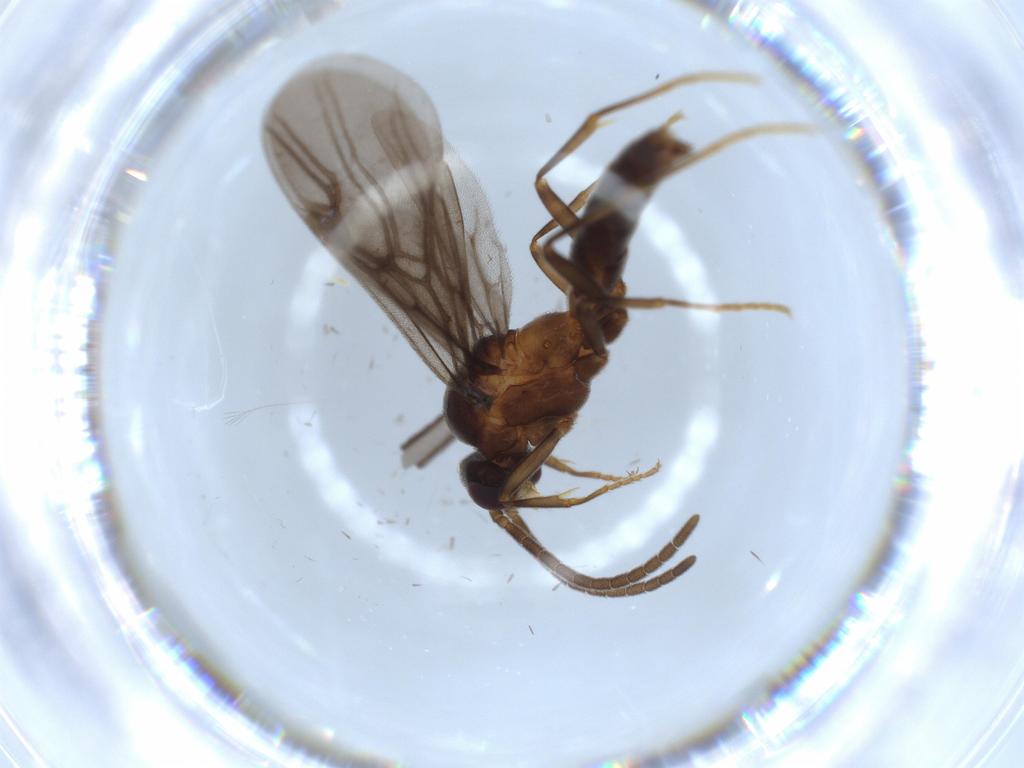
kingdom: Animalia
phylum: Arthropoda
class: Insecta
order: Hymenoptera
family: Formicidae
